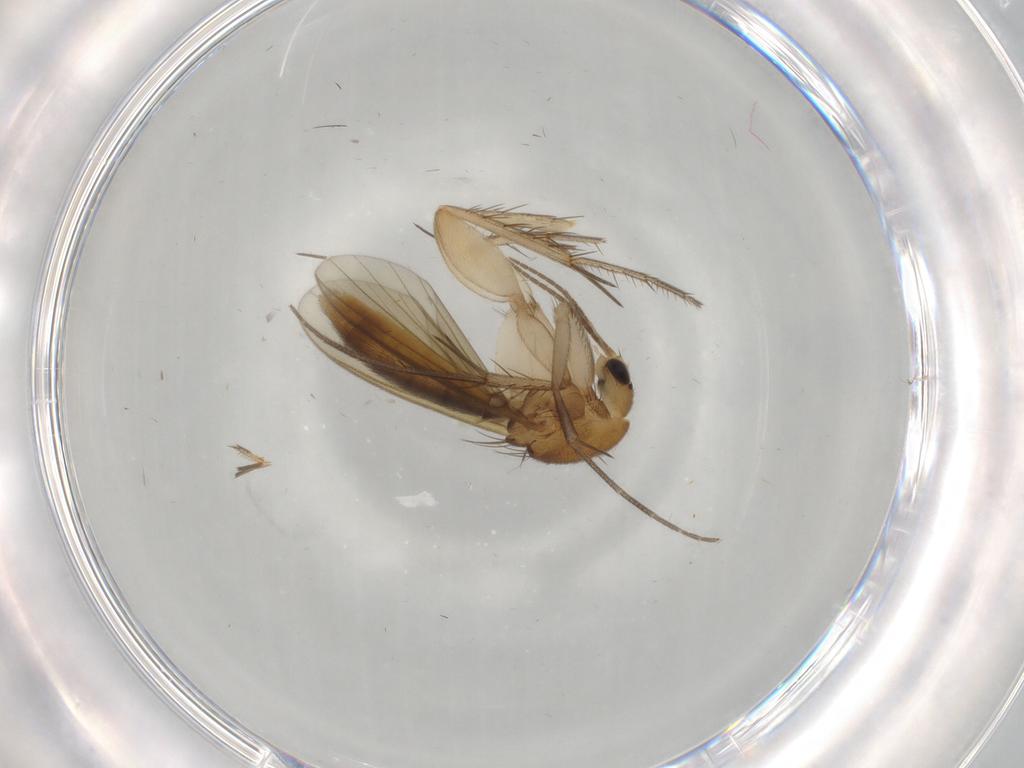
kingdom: Animalia
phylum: Arthropoda
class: Insecta
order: Diptera
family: Mycetophilidae
